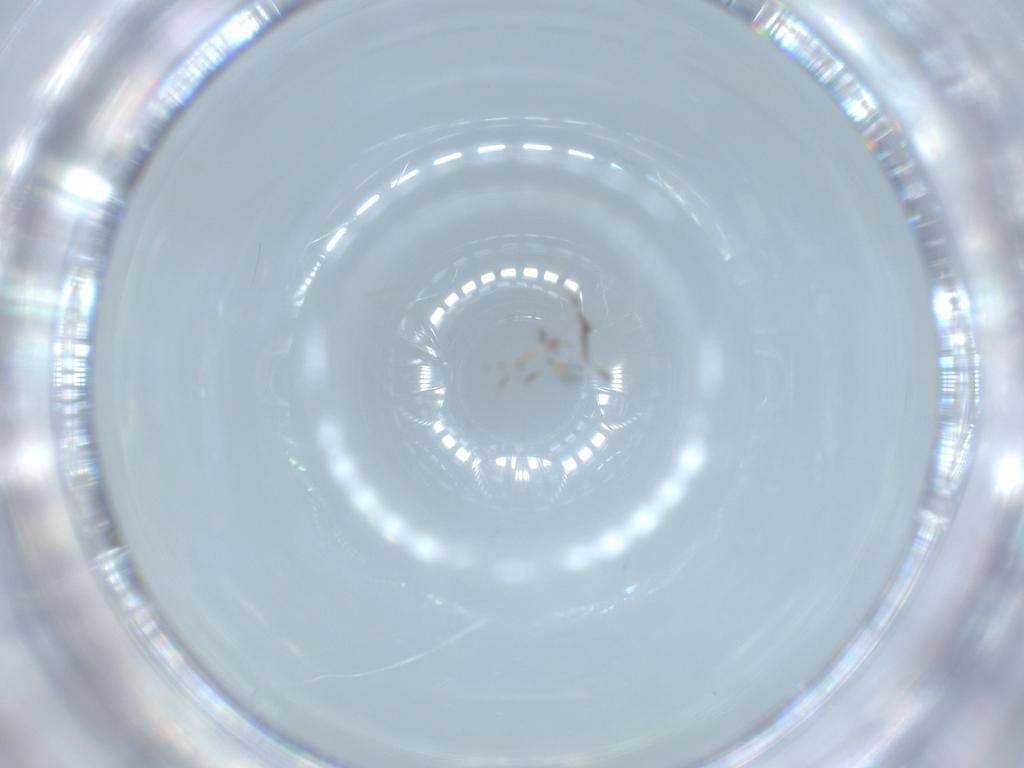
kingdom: Animalia
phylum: Arthropoda
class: Insecta
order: Diptera
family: Chironomidae
